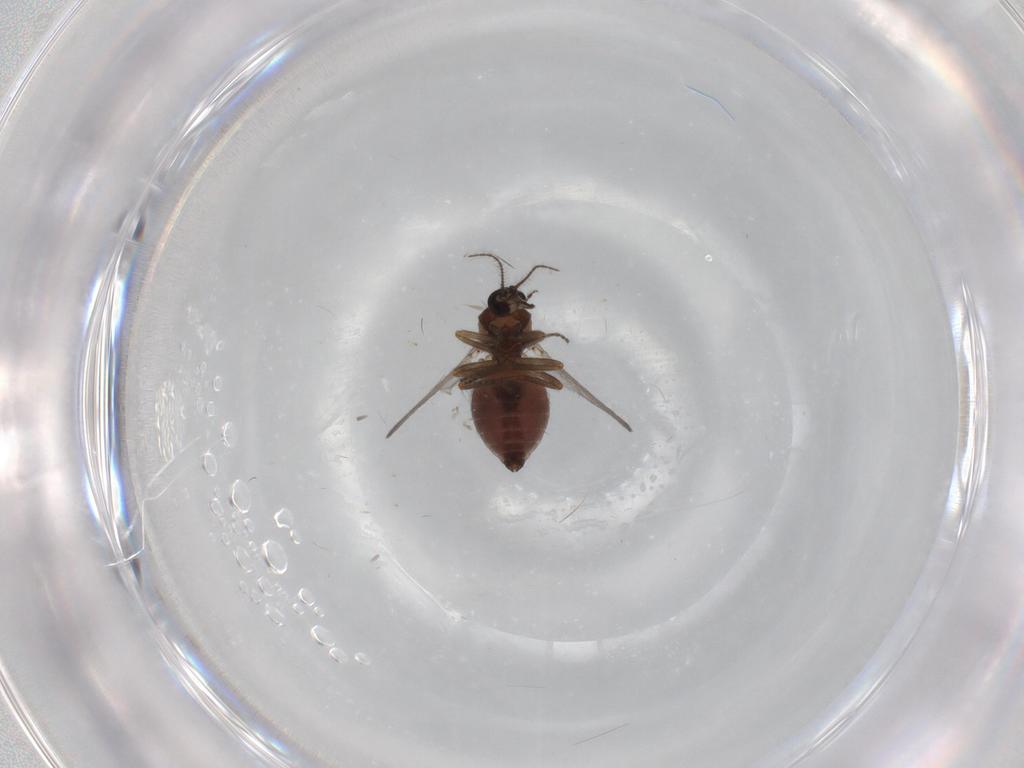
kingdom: Animalia
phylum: Arthropoda
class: Insecta
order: Diptera
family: Ceratopogonidae
